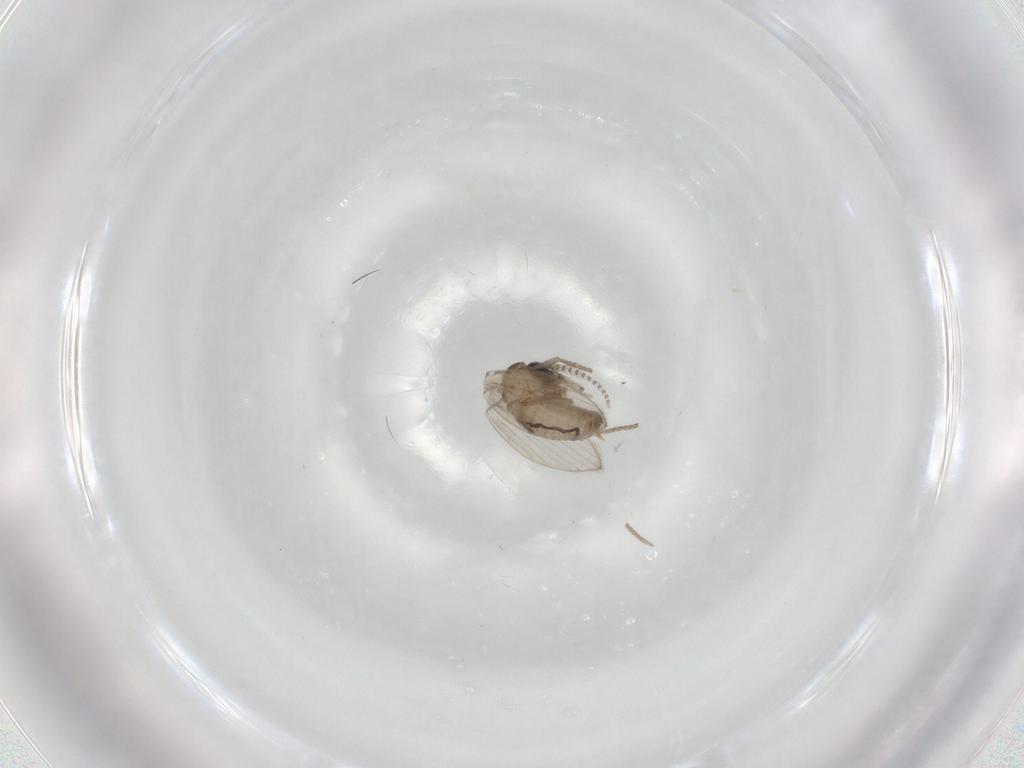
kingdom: Animalia
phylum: Arthropoda
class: Insecta
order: Diptera
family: Psychodidae
